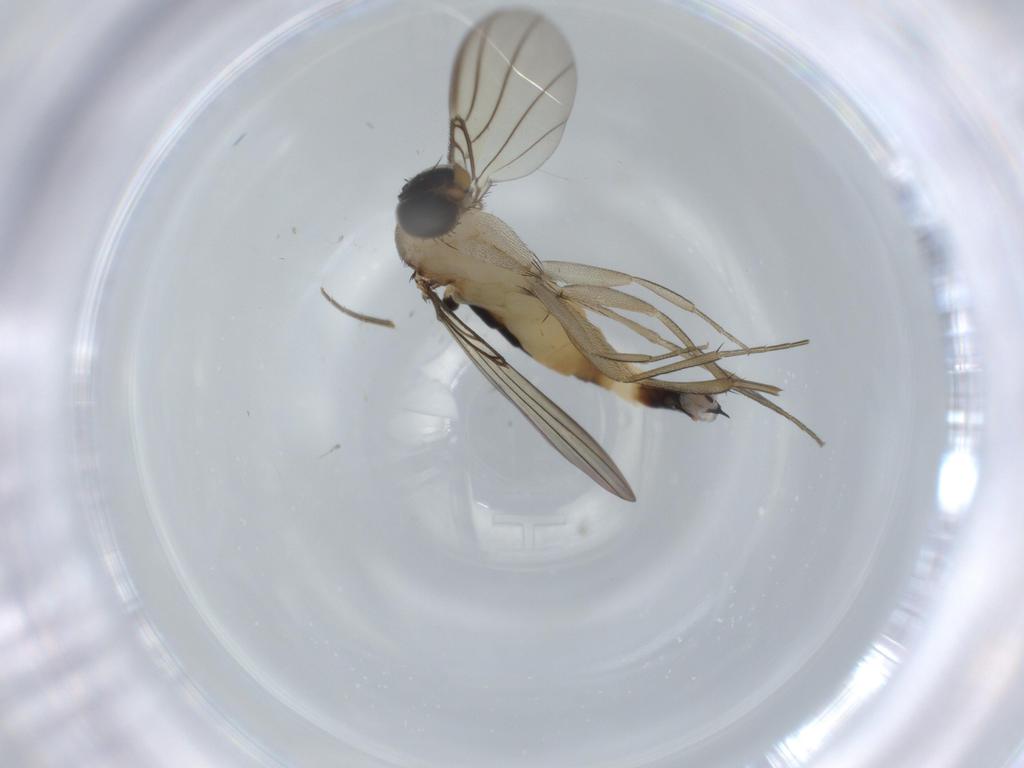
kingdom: Animalia
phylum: Arthropoda
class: Insecta
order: Diptera
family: Phoridae
